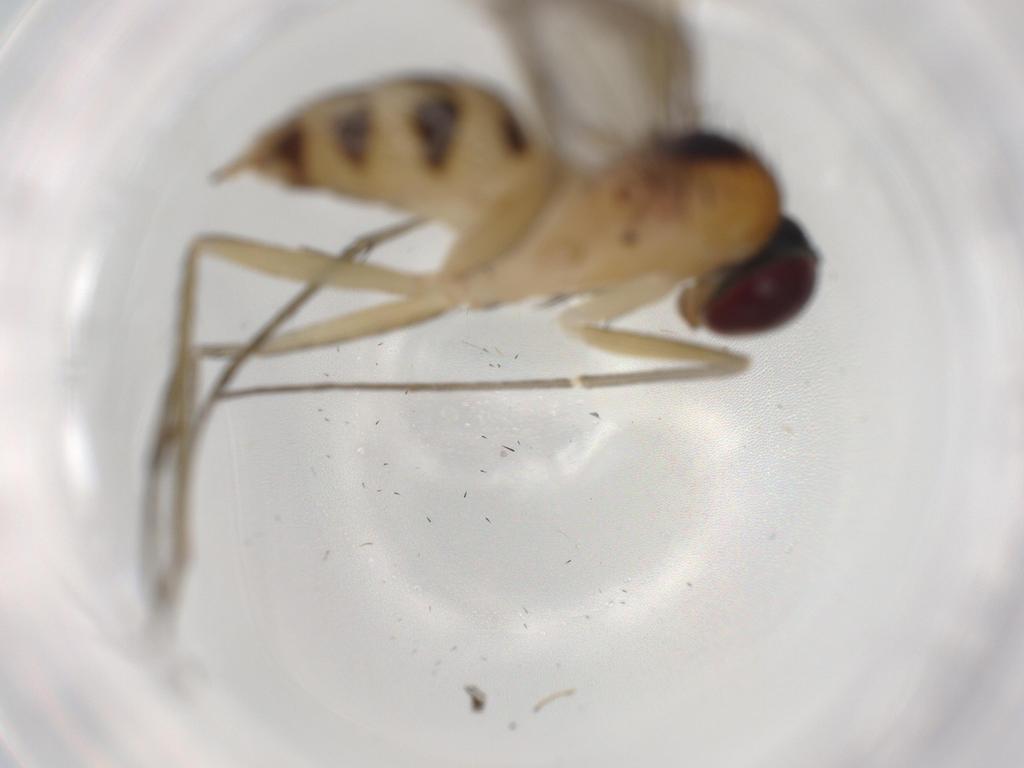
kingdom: Animalia
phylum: Arthropoda
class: Insecta
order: Diptera
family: Dolichopodidae
